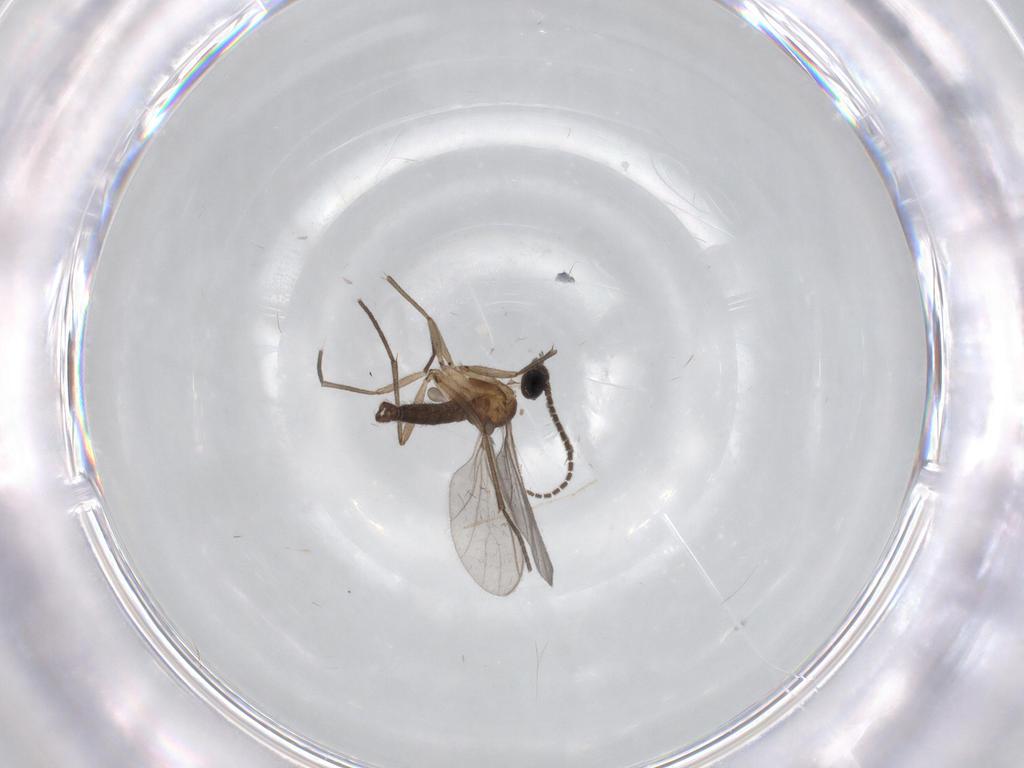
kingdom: Animalia
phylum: Arthropoda
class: Insecta
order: Diptera
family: Sciaridae
